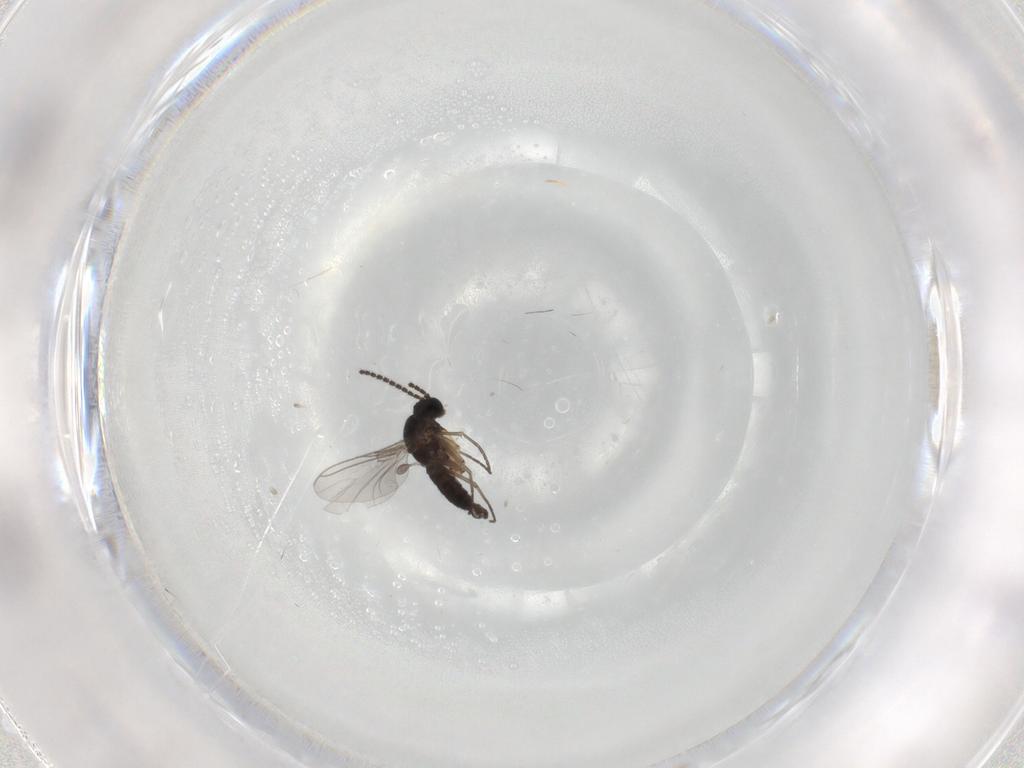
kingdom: Animalia
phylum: Arthropoda
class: Insecta
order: Diptera
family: Sciaridae
